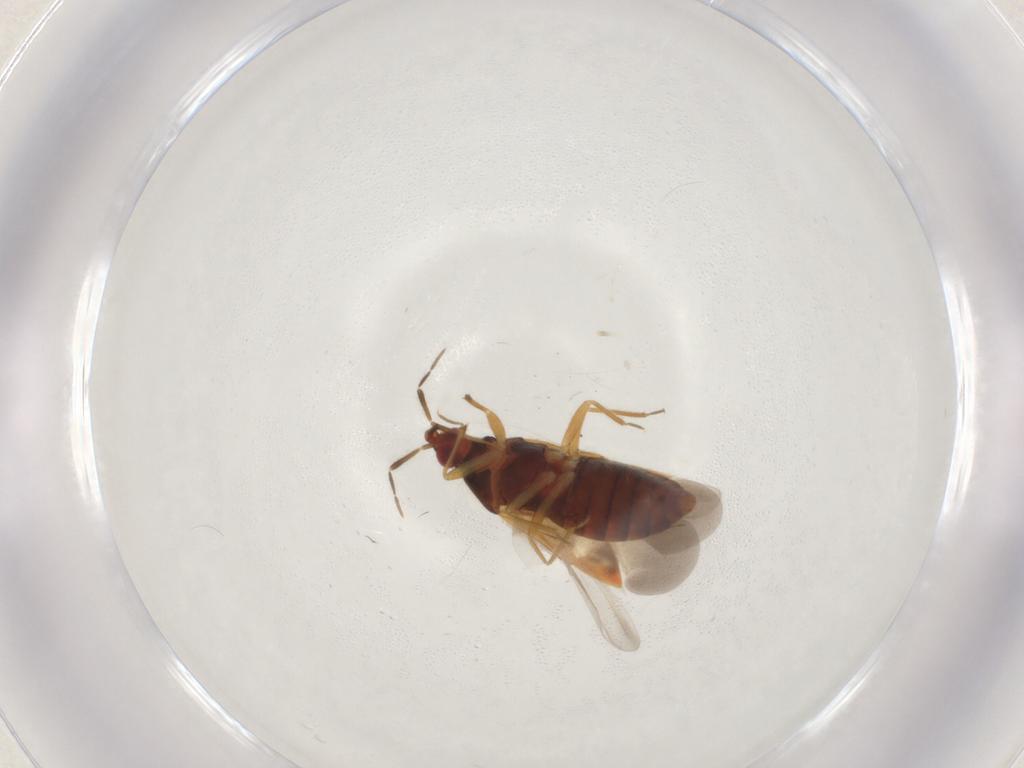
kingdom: Animalia
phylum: Arthropoda
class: Insecta
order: Hemiptera
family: Anthocoridae
